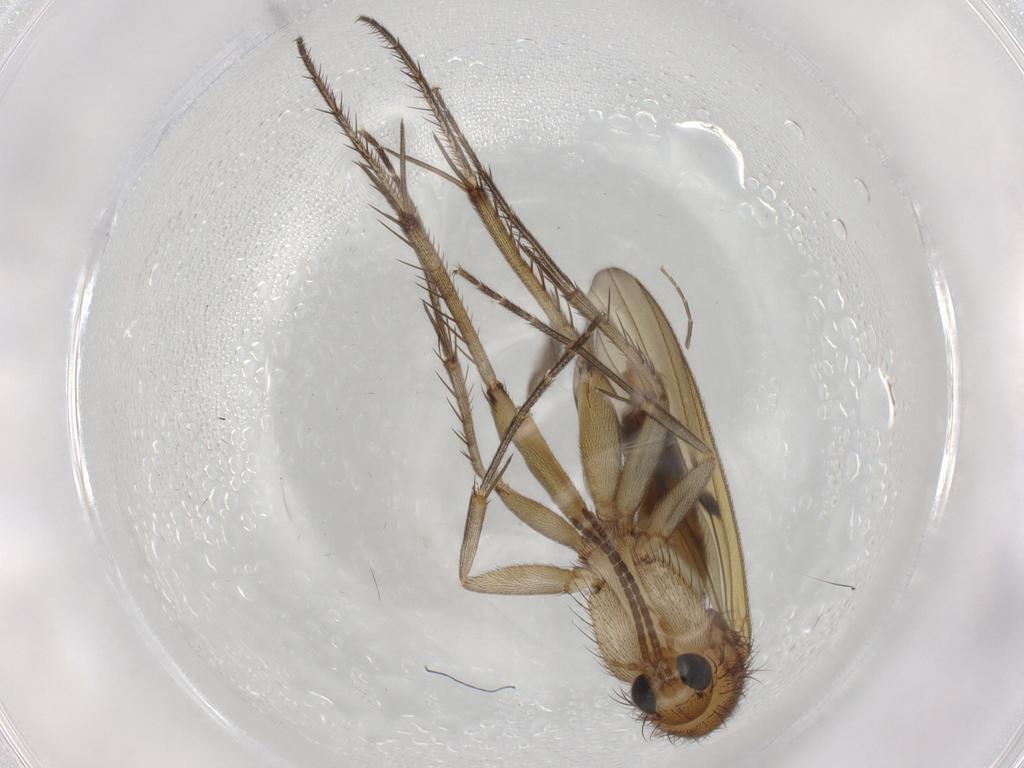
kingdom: Animalia
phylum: Arthropoda
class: Insecta
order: Diptera
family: Mycetophilidae
